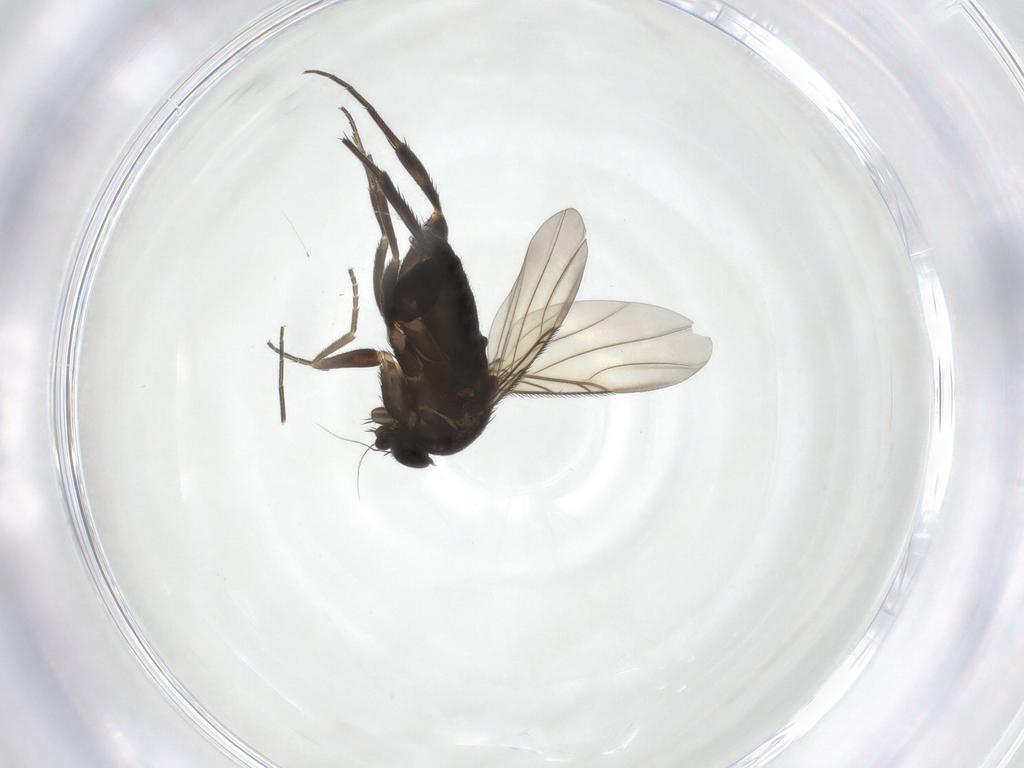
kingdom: Animalia
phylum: Arthropoda
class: Insecta
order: Diptera
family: Phoridae
